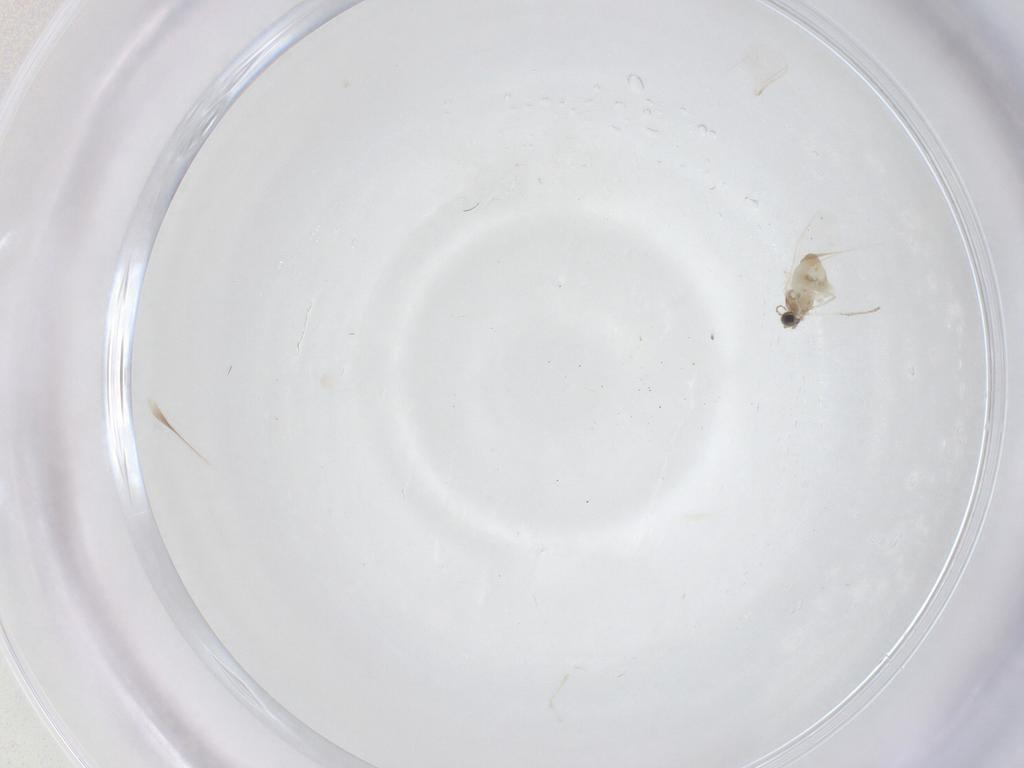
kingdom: Animalia
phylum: Arthropoda
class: Insecta
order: Diptera
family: Cecidomyiidae
